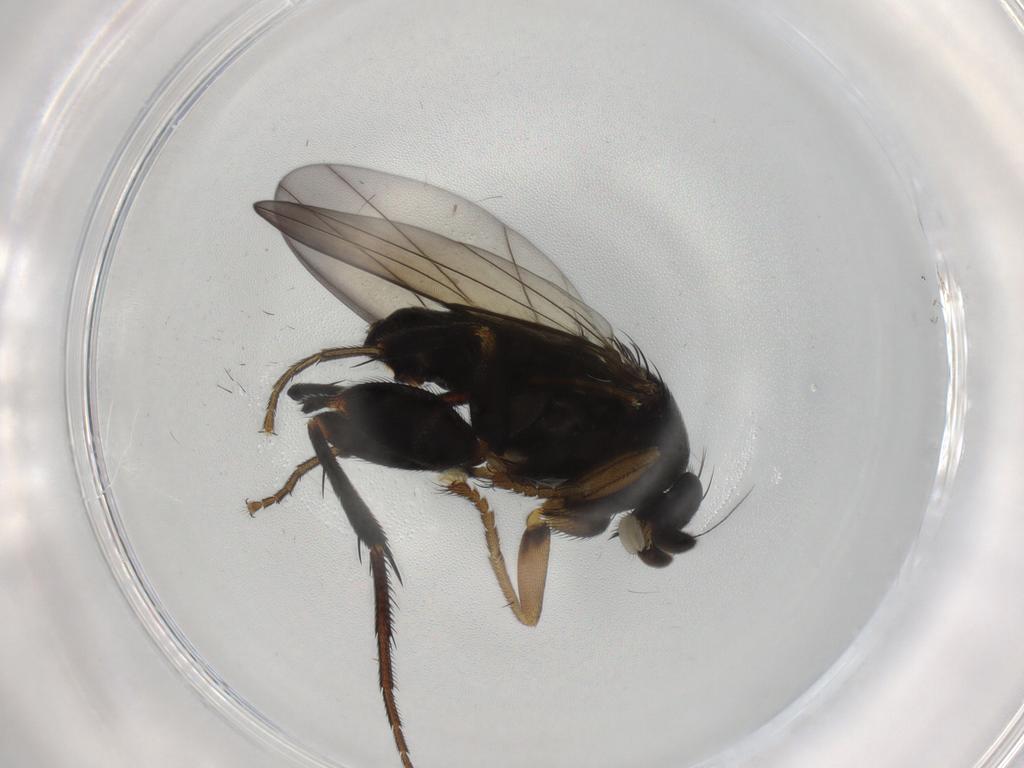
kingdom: Animalia
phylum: Arthropoda
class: Insecta
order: Diptera
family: Phoridae
